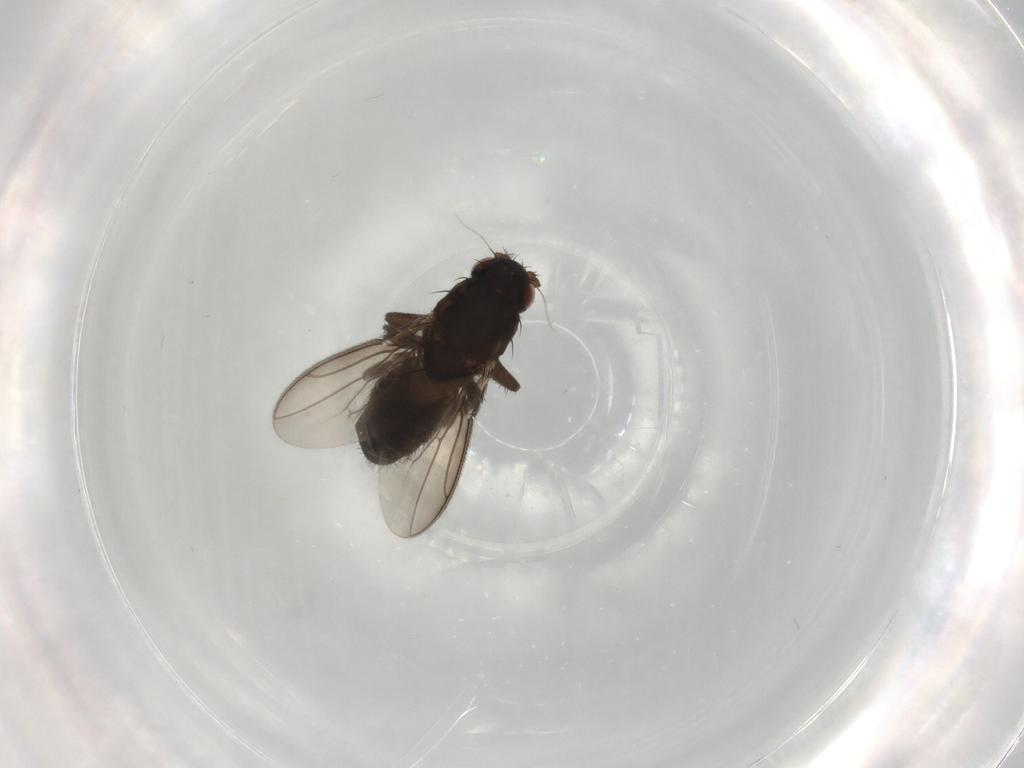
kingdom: Animalia
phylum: Arthropoda
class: Insecta
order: Diptera
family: Sphaeroceridae
